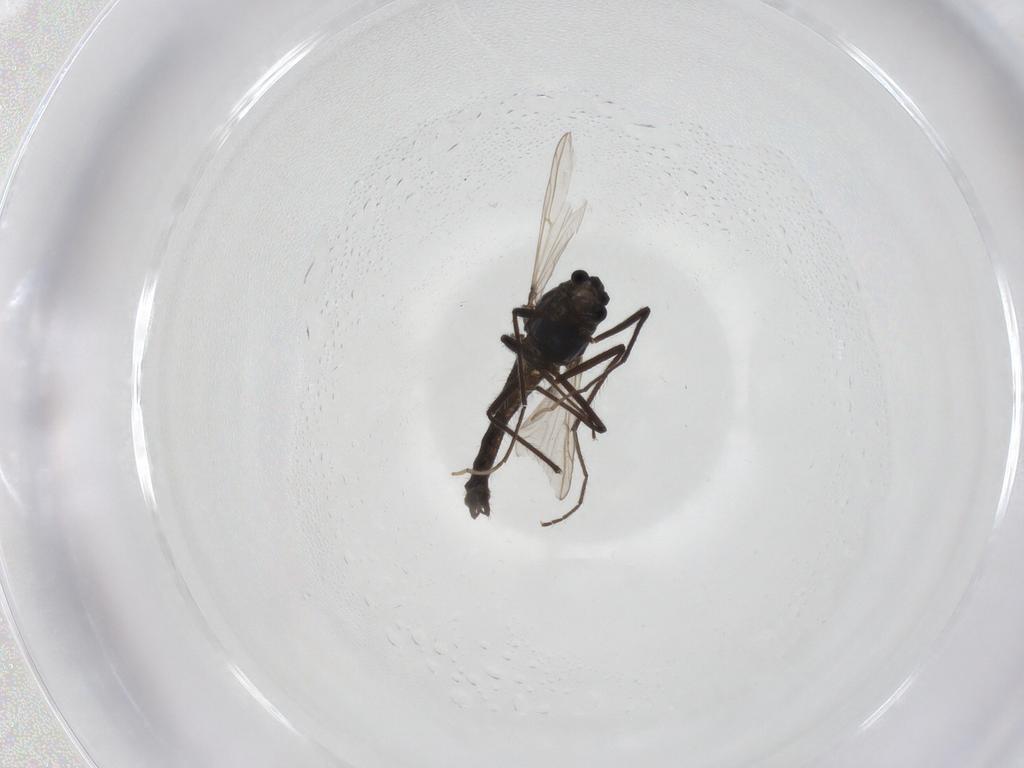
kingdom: Animalia
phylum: Arthropoda
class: Insecta
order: Diptera
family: Chironomidae
